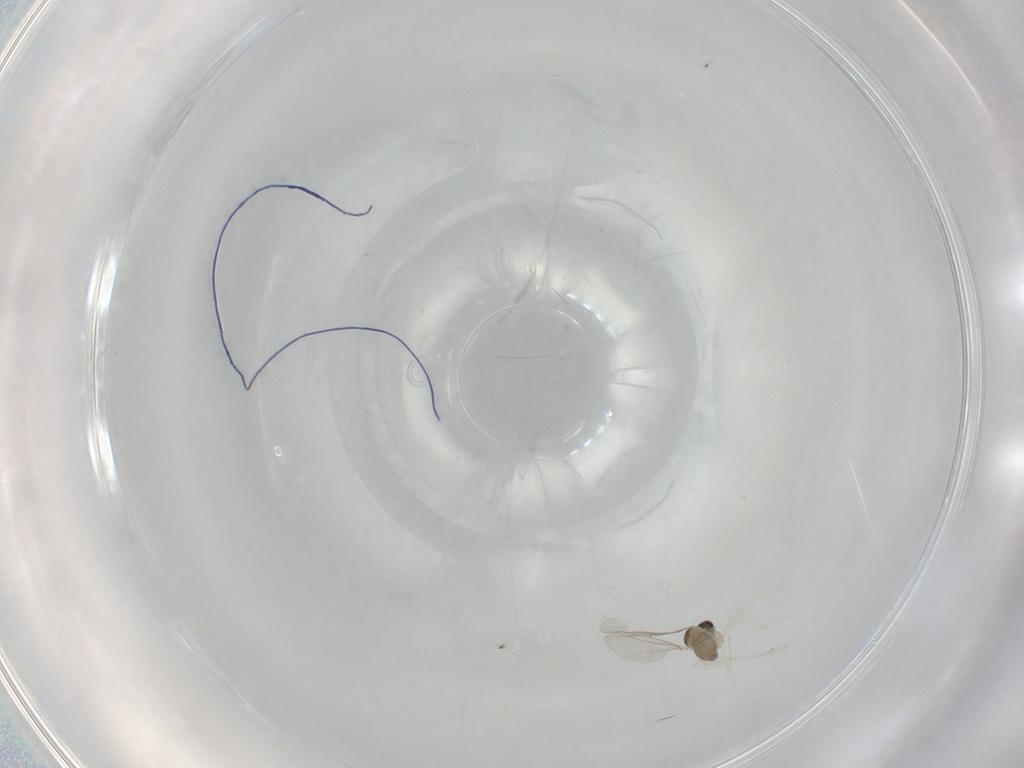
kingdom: Animalia
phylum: Arthropoda
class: Insecta
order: Diptera
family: Cecidomyiidae
